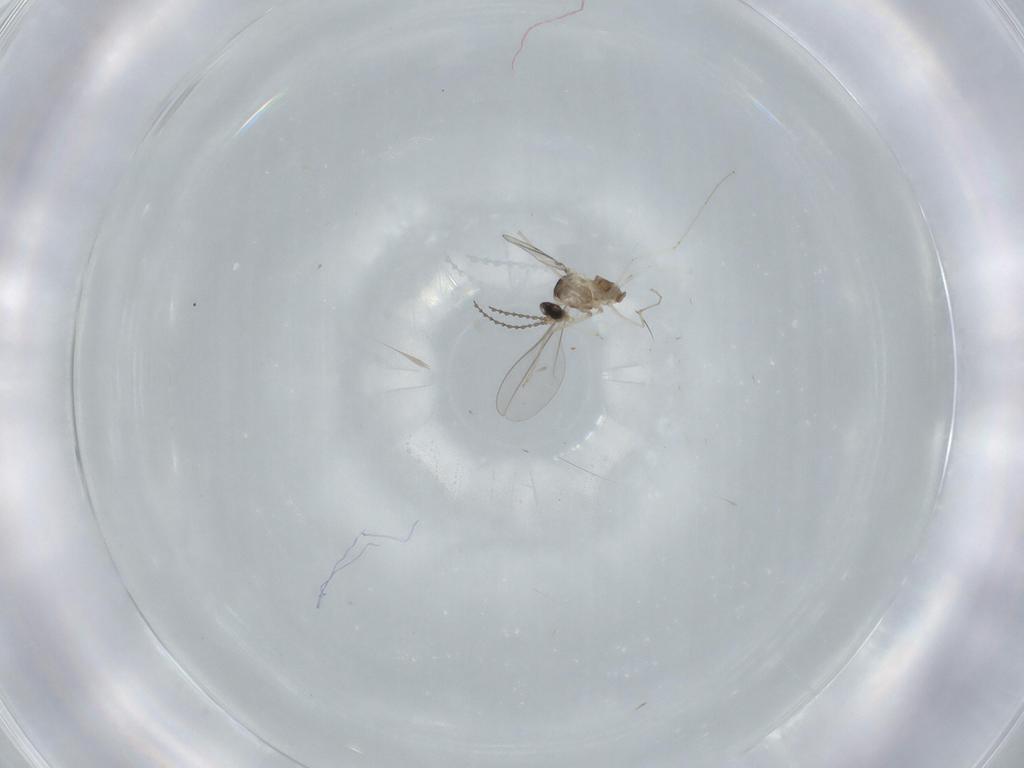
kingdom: Animalia
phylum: Arthropoda
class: Insecta
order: Diptera
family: Cecidomyiidae
